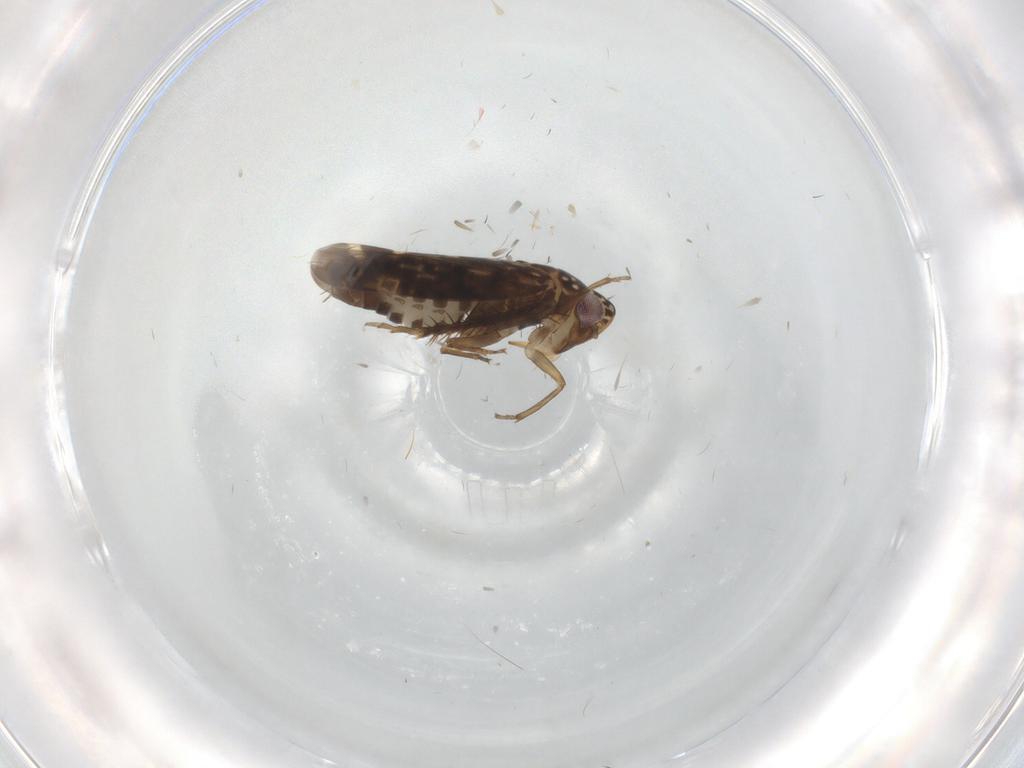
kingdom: Animalia
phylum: Arthropoda
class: Insecta
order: Hemiptera
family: Cicadellidae
